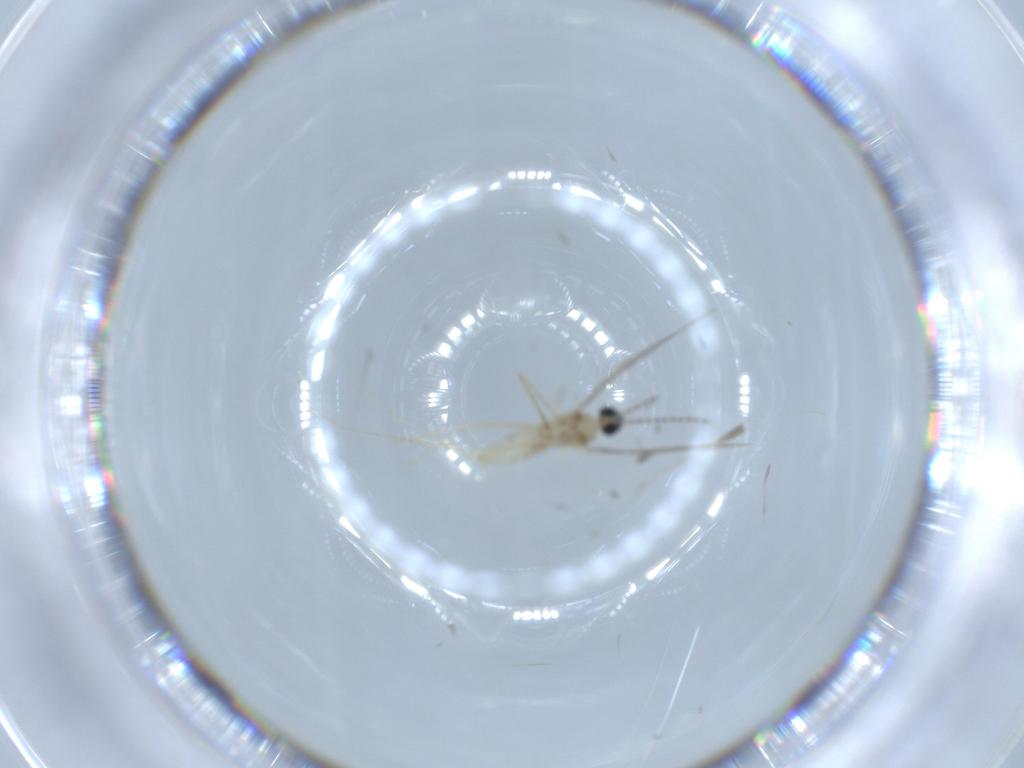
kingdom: Animalia
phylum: Arthropoda
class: Insecta
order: Diptera
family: Cecidomyiidae
